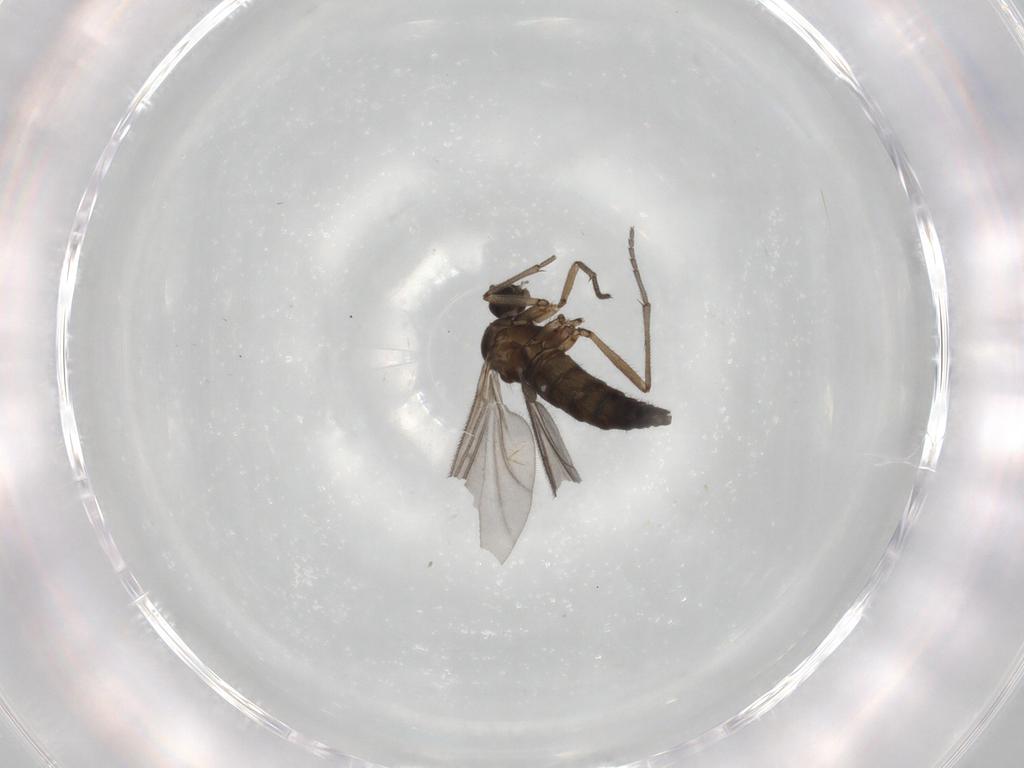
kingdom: Animalia
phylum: Arthropoda
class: Insecta
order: Diptera
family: Sciaridae
